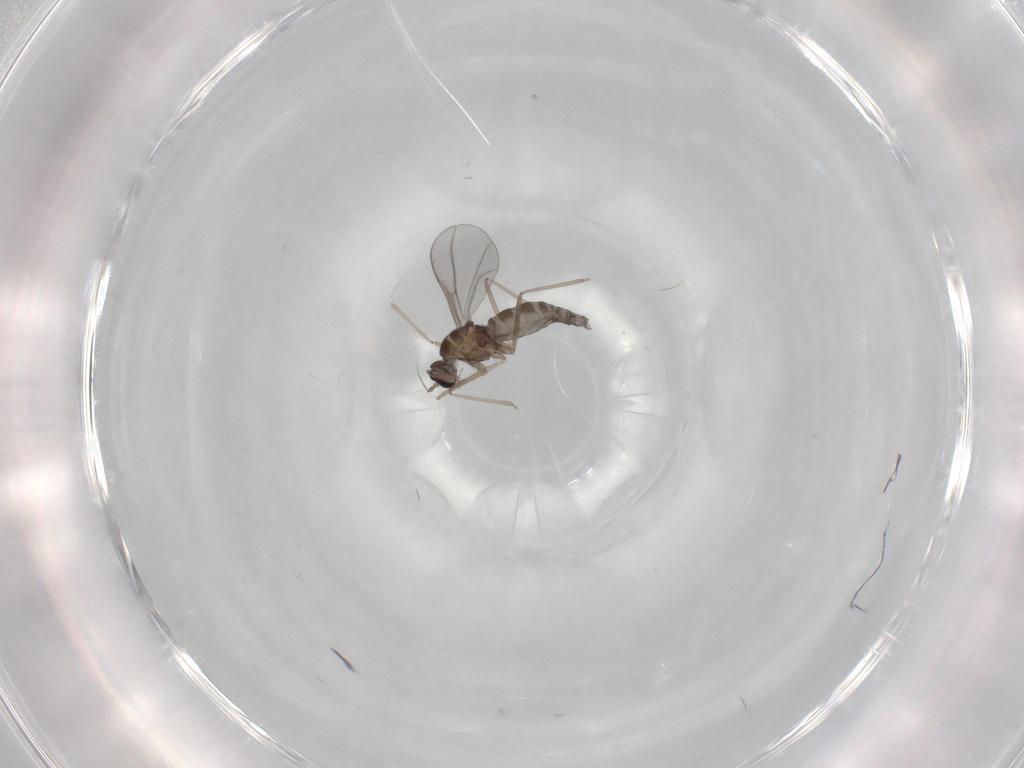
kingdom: Animalia
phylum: Arthropoda
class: Insecta
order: Diptera
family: Cecidomyiidae
